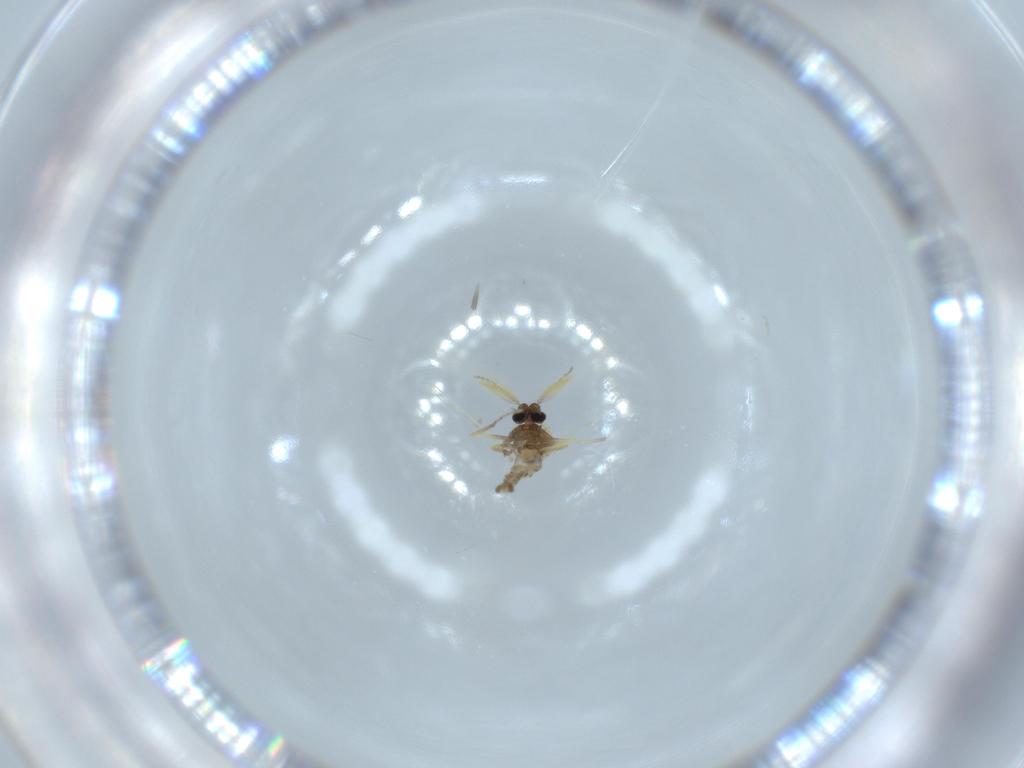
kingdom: Animalia
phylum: Arthropoda
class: Insecta
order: Diptera
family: Ceratopogonidae
